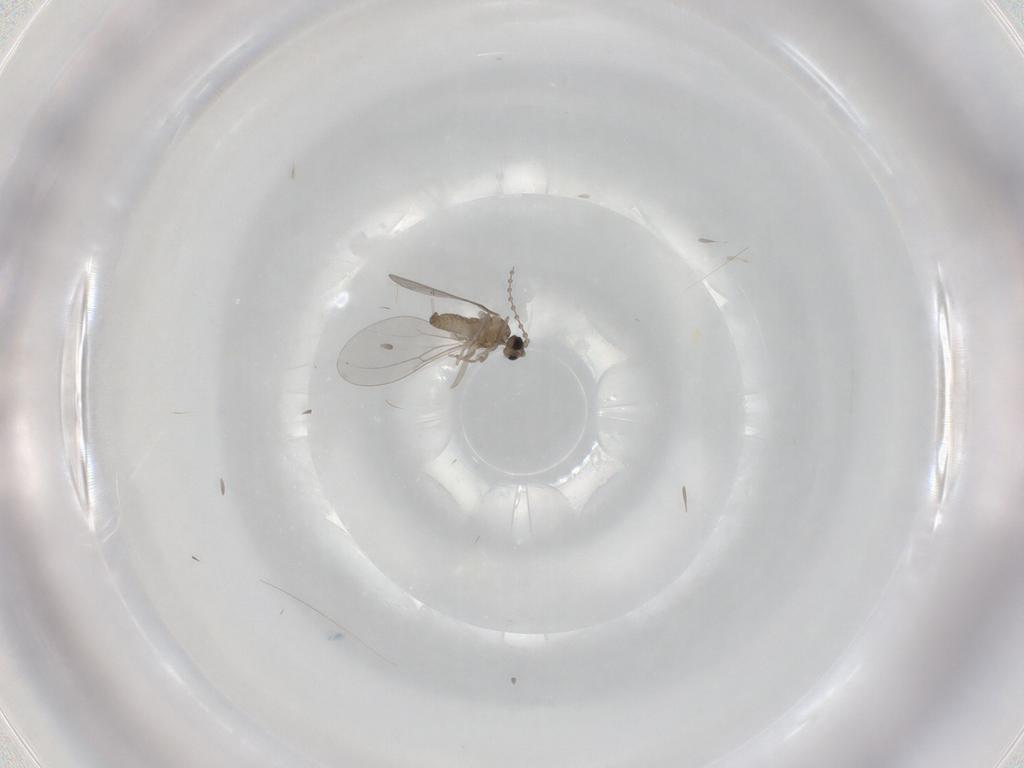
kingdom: Animalia
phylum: Arthropoda
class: Insecta
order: Diptera
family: Cecidomyiidae
